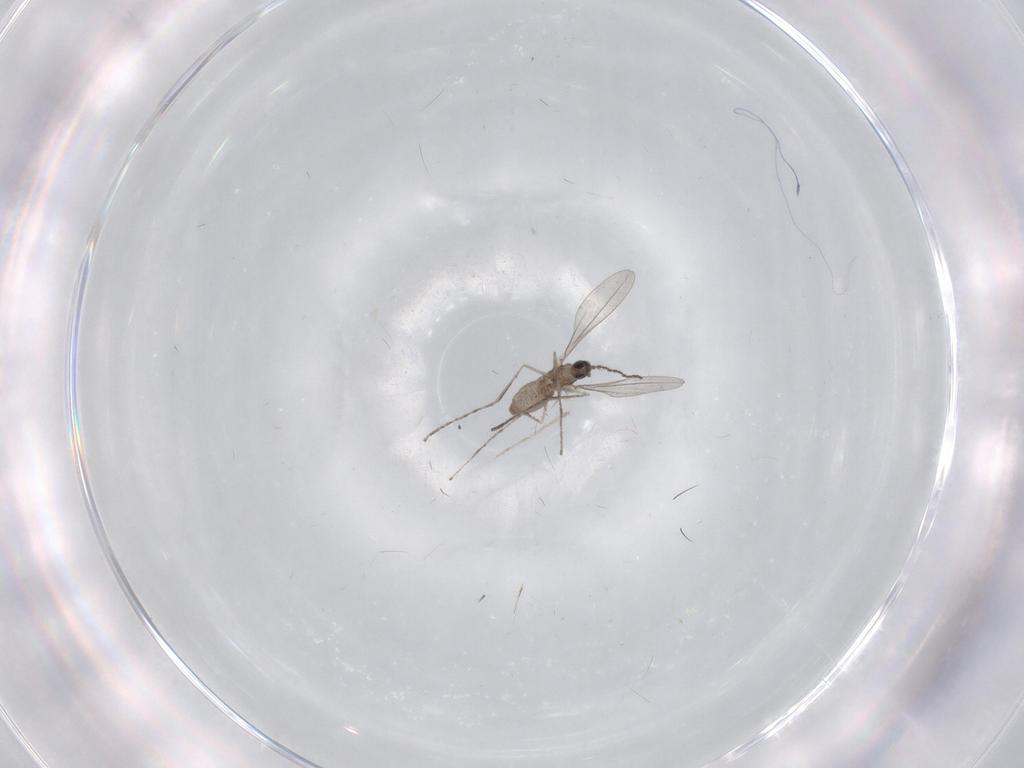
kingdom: Animalia
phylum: Arthropoda
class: Insecta
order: Diptera
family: Cecidomyiidae
